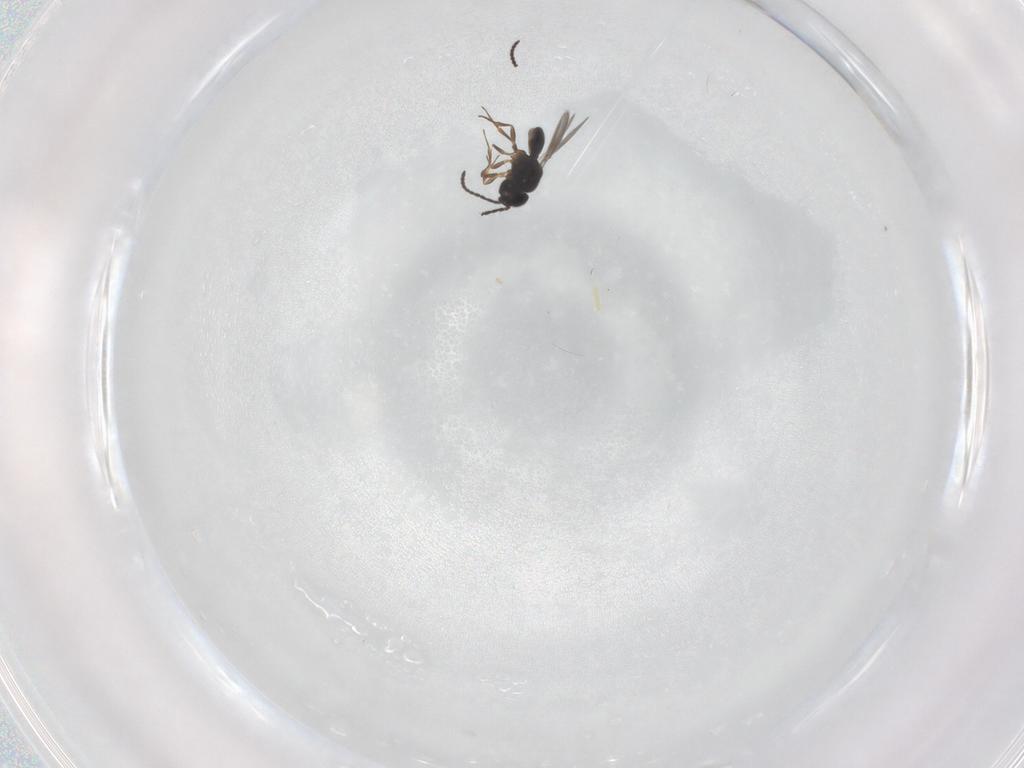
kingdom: Animalia
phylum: Arthropoda
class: Insecta
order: Hymenoptera
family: Scelionidae
